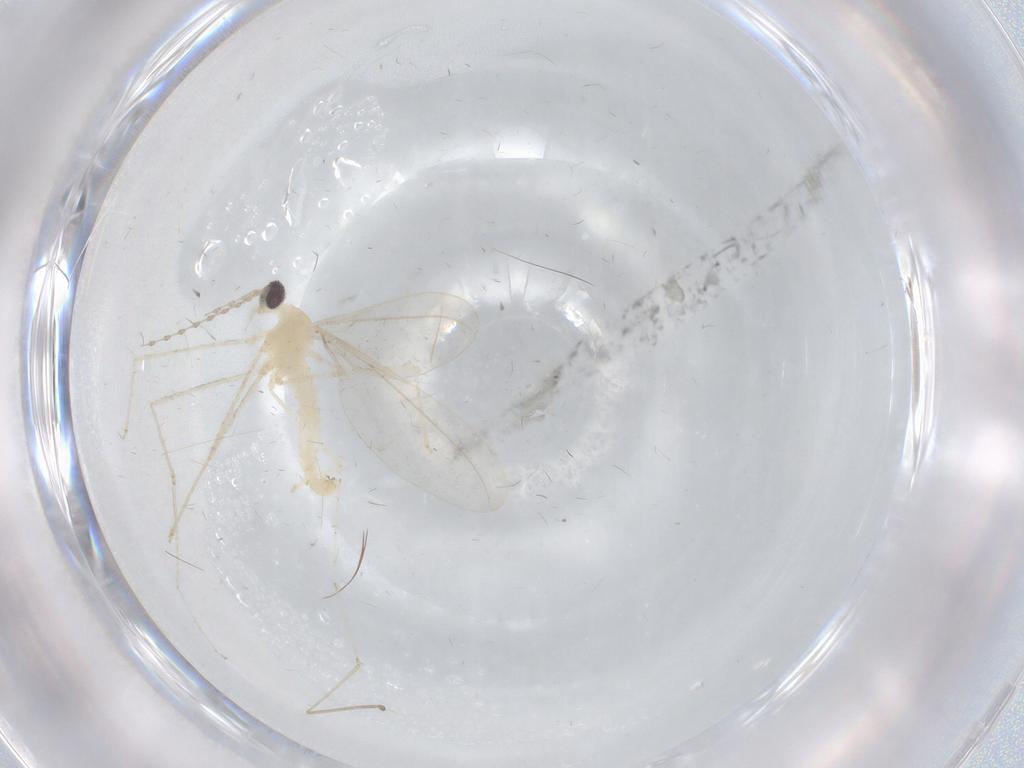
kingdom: Animalia
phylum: Arthropoda
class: Insecta
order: Diptera
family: Cecidomyiidae
